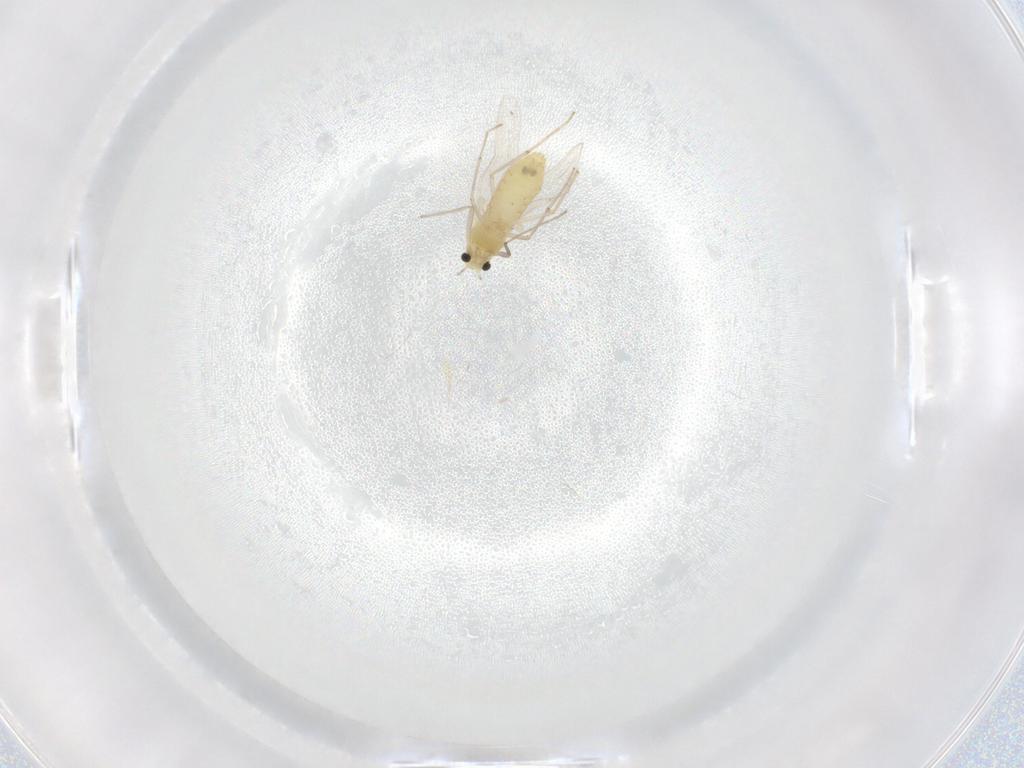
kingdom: Animalia
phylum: Arthropoda
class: Insecta
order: Diptera
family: Chironomidae
